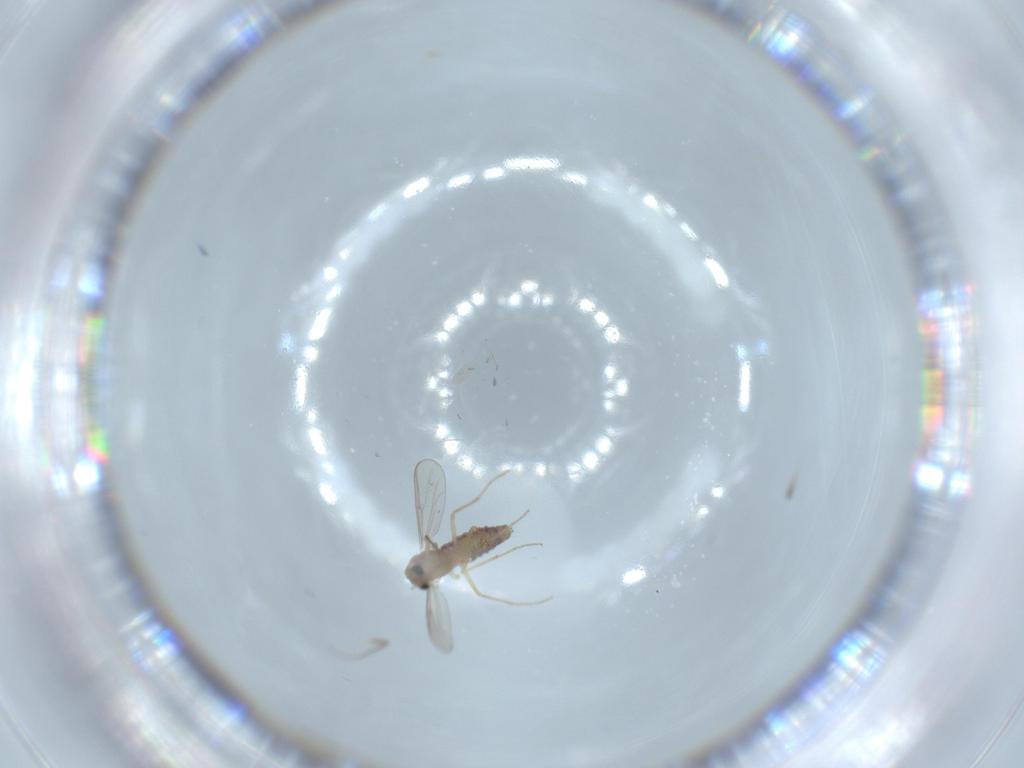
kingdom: Animalia
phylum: Arthropoda
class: Insecta
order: Diptera
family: Chironomidae
